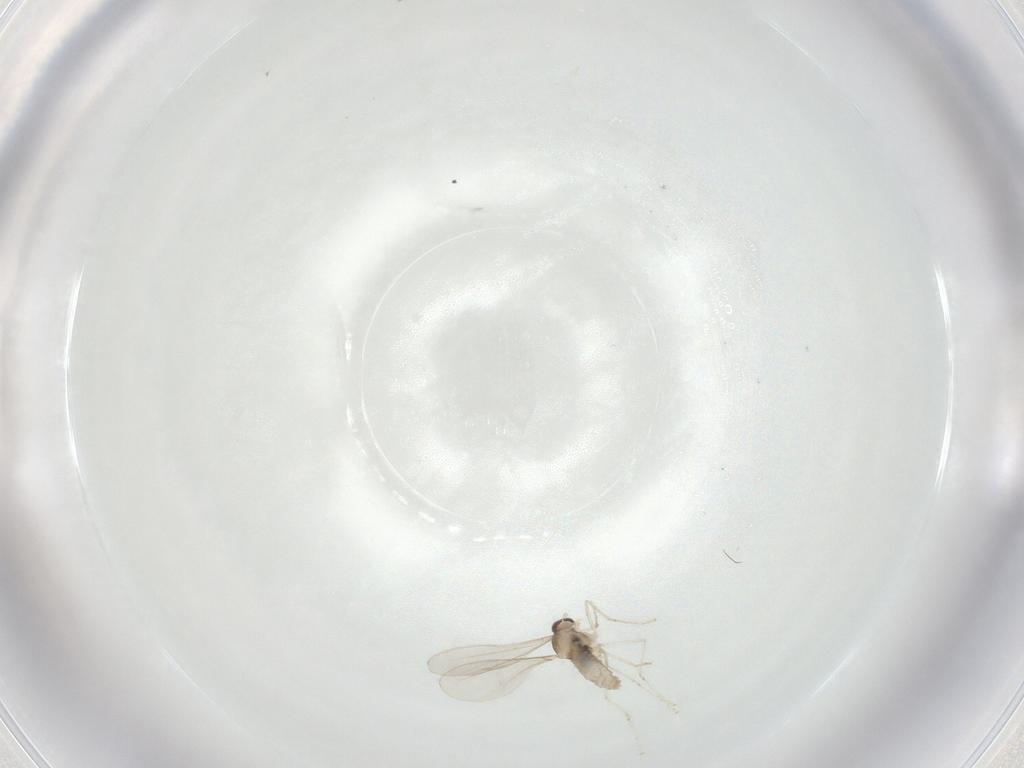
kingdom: Animalia
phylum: Arthropoda
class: Insecta
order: Diptera
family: Cecidomyiidae
